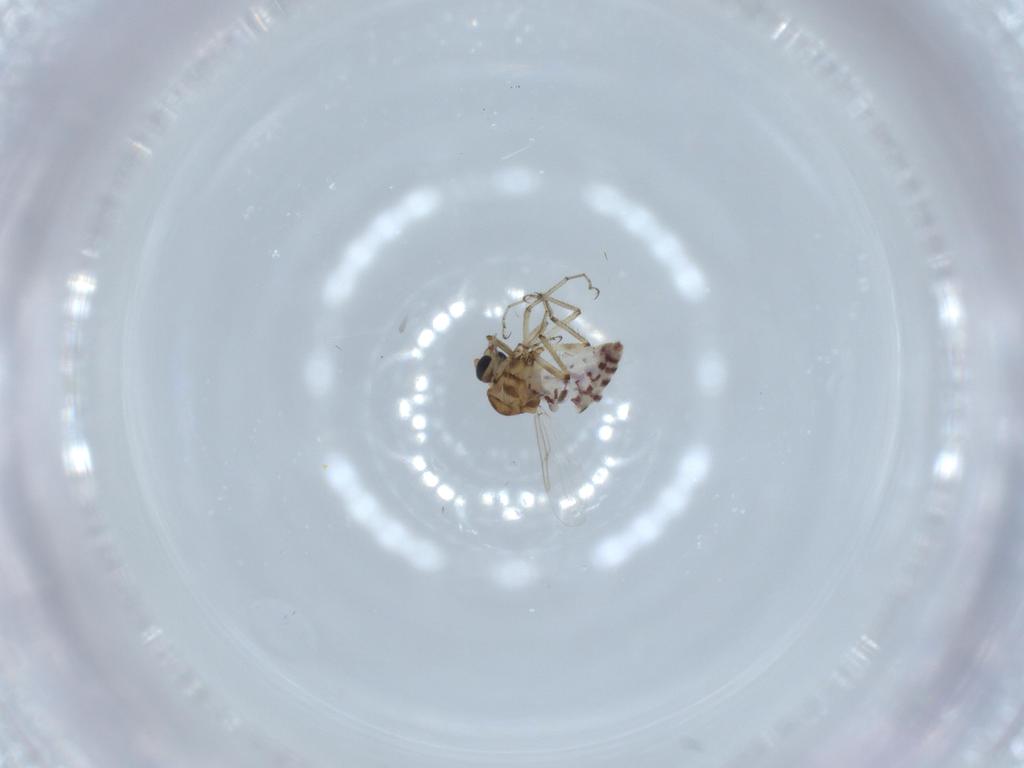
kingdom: Animalia
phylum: Arthropoda
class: Insecta
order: Diptera
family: Ceratopogonidae
